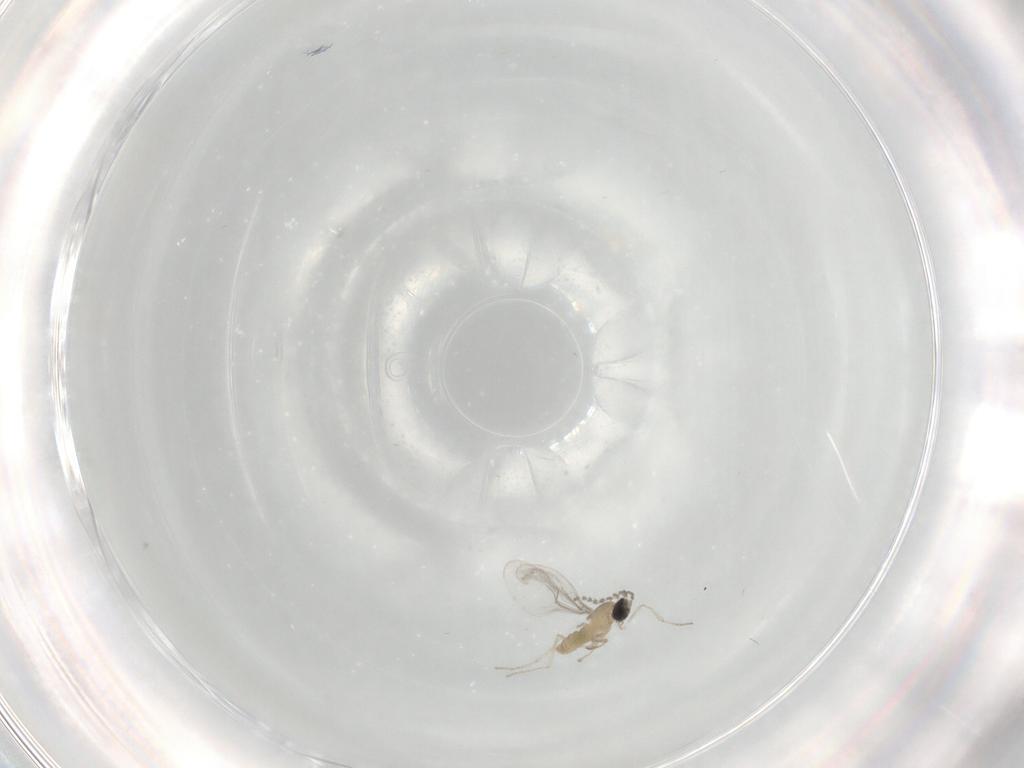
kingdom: Animalia
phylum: Arthropoda
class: Insecta
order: Diptera
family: Cecidomyiidae
